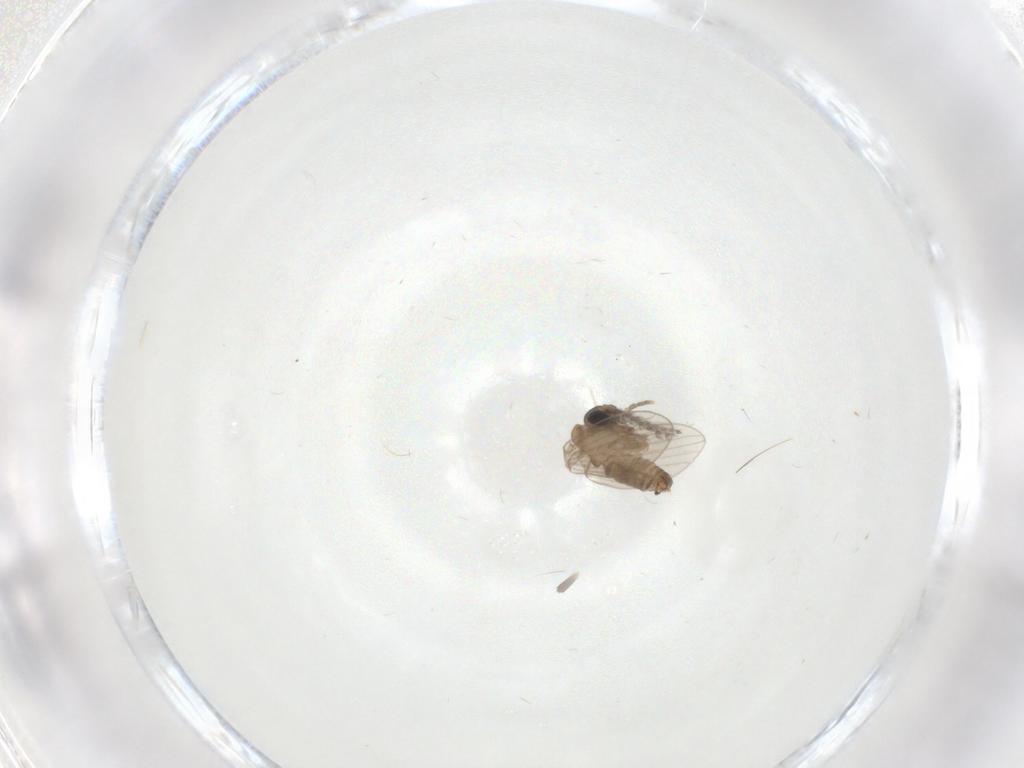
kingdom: Animalia
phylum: Arthropoda
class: Insecta
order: Diptera
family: Psychodidae
